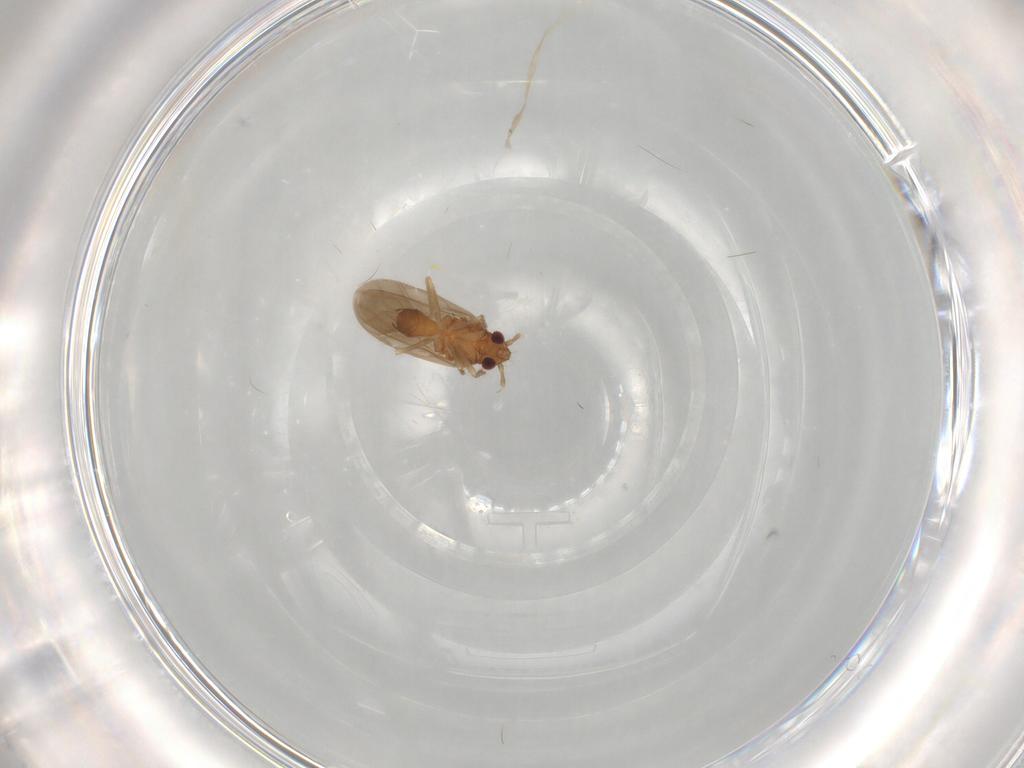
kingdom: Animalia
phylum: Arthropoda
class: Insecta
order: Hemiptera
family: Ceratocombidae
